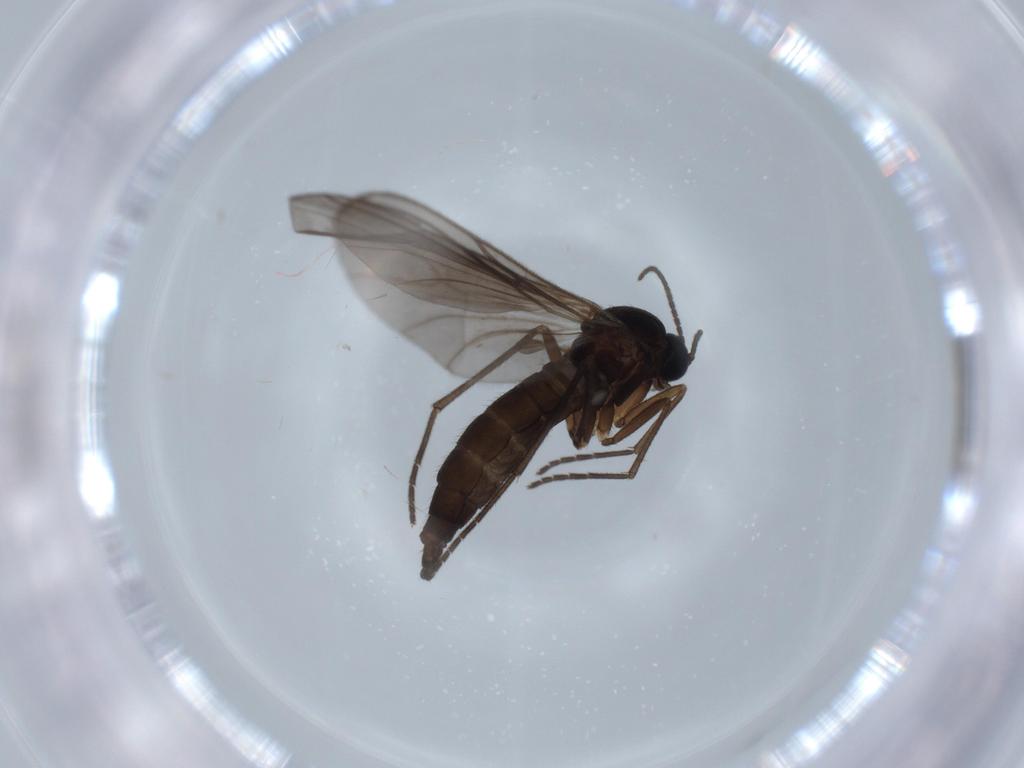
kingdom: Animalia
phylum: Arthropoda
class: Insecta
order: Diptera
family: Sciaridae
